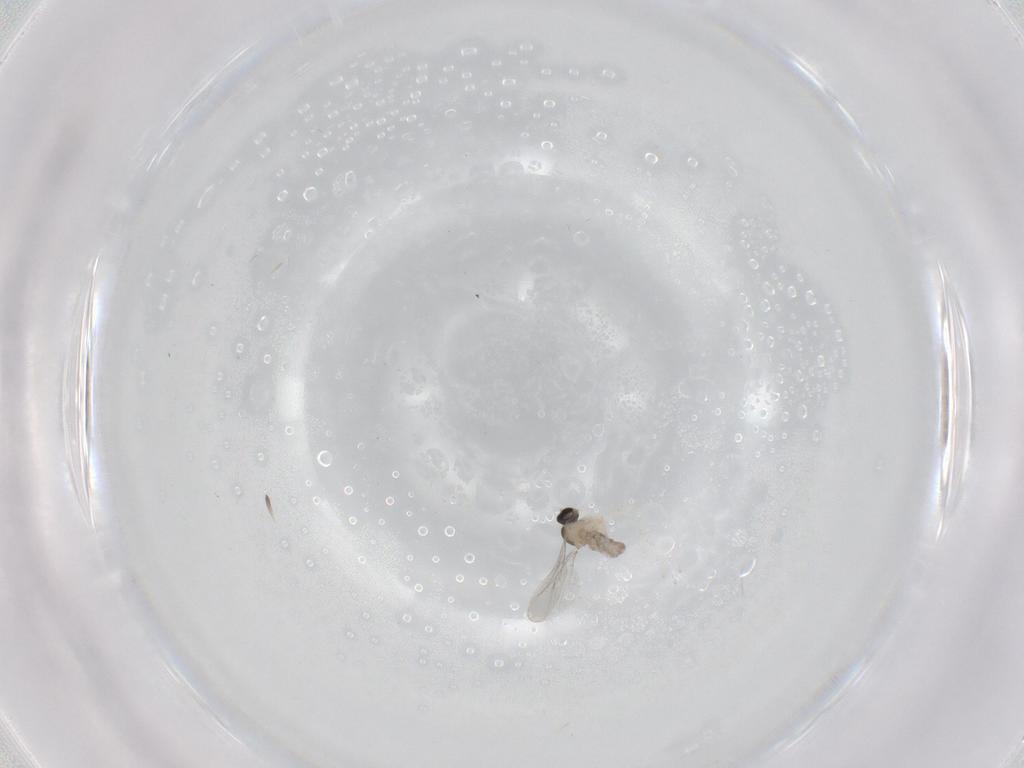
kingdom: Animalia
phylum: Arthropoda
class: Insecta
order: Diptera
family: Cecidomyiidae
